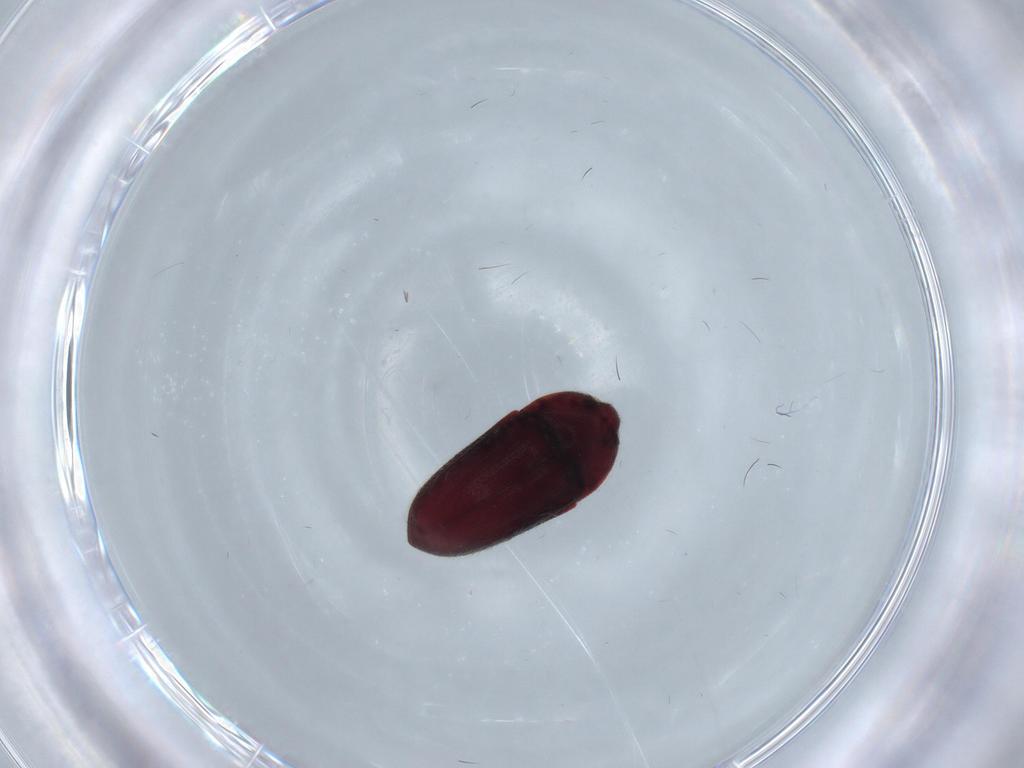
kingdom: Animalia
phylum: Arthropoda
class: Insecta
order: Coleoptera
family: Throscidae
